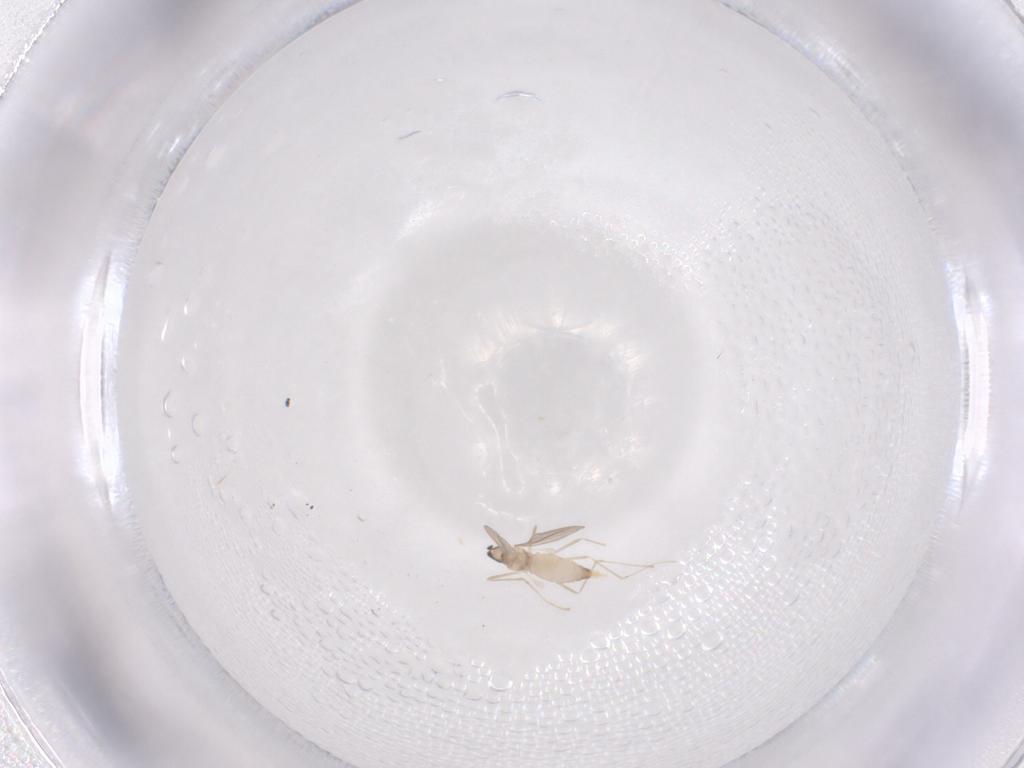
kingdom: Animalia
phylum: Arthropoda
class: Insecta
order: Diptera
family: Cecidomyiidae
